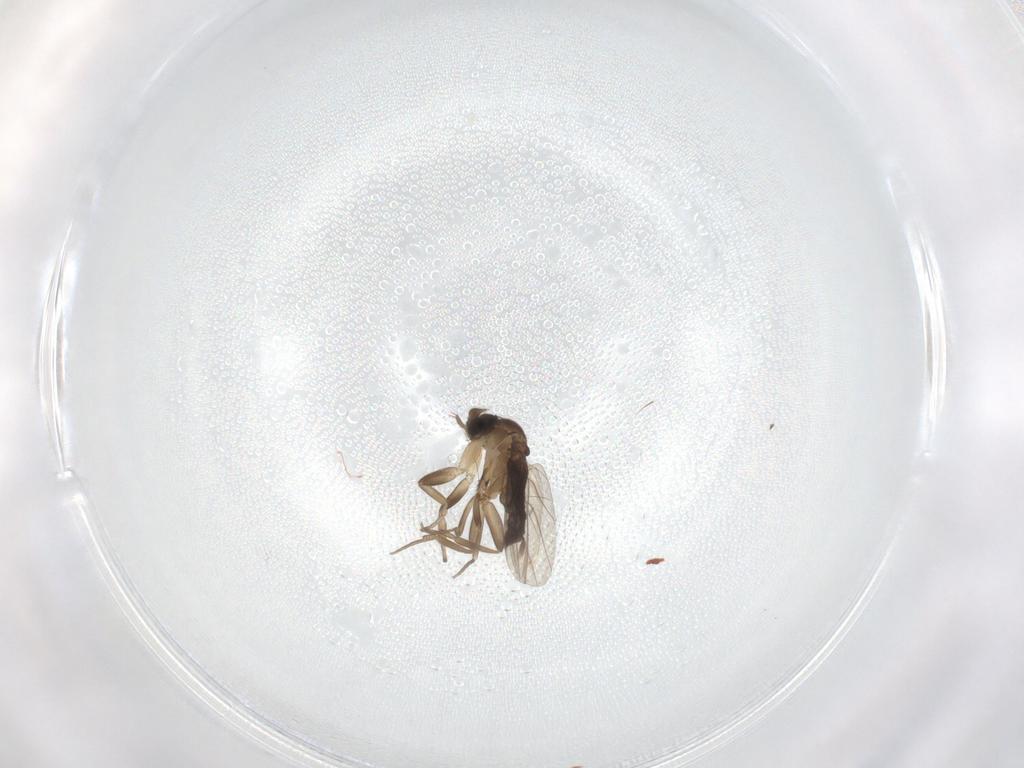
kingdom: Animalia
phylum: Arthropoda
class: Insecta
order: Diptera
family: Phoridae
